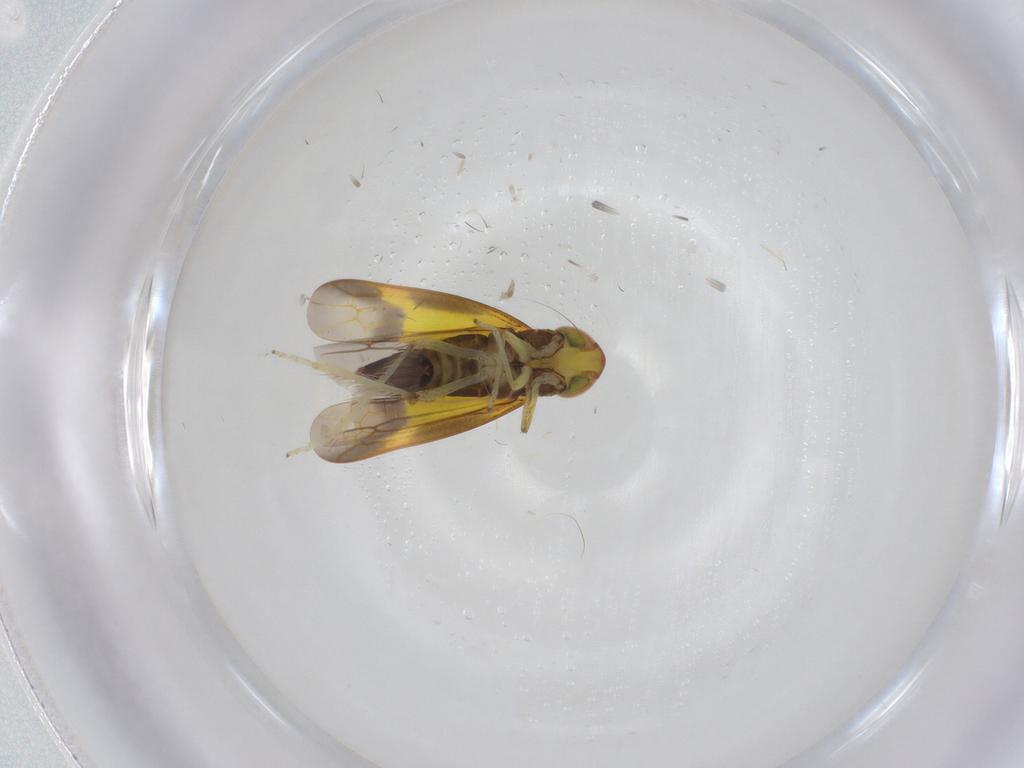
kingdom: Animalia
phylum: Arthropoda
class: Insecta
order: Hemiptera
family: Cicadellidae
